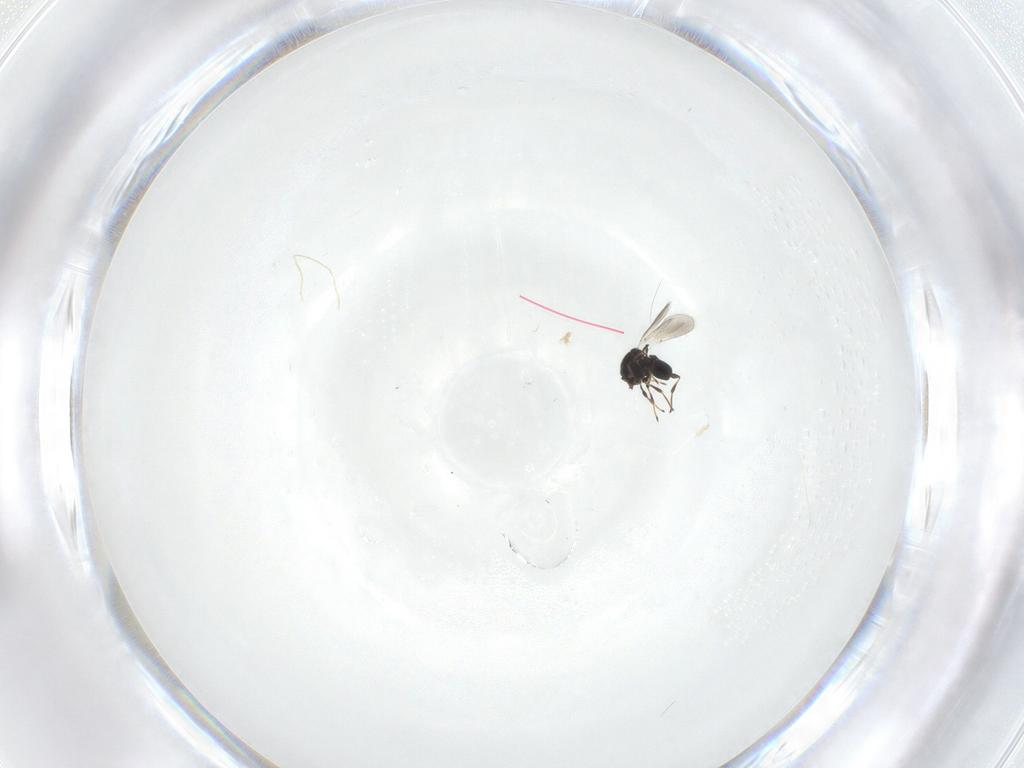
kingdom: Animalia
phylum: Arthropoda
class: Insecta
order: Hymenoptera
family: Platygastridae
